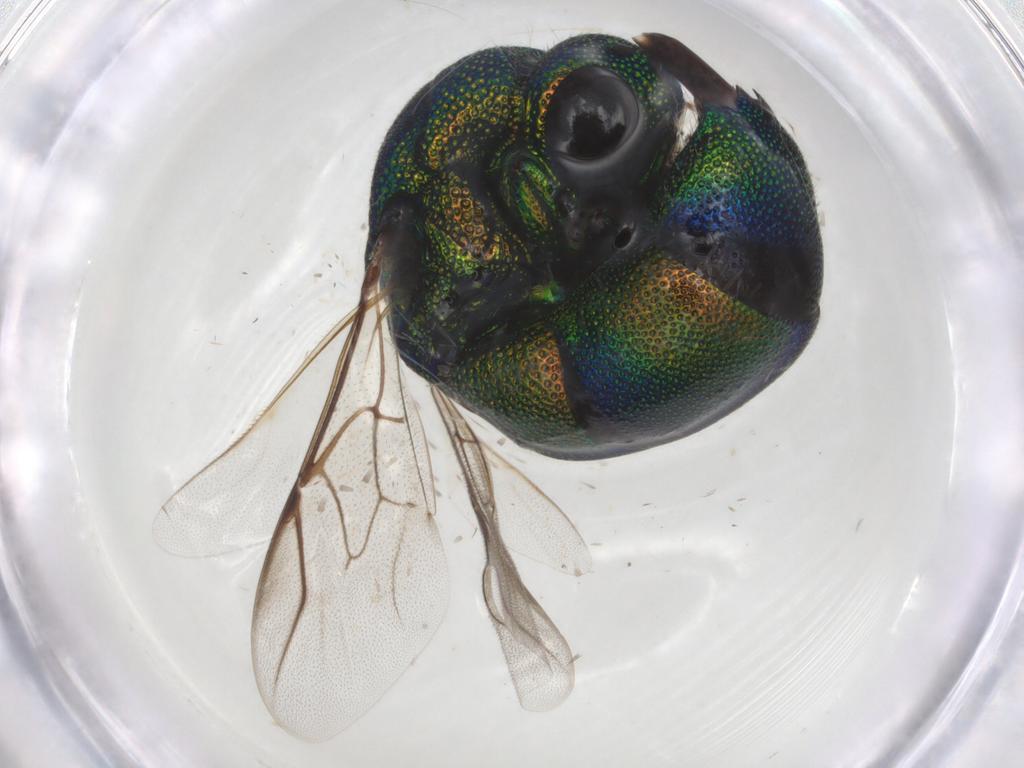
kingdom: Animalia
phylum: Arthropoda
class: Insecta
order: Hymenoptera
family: Chrysididae
